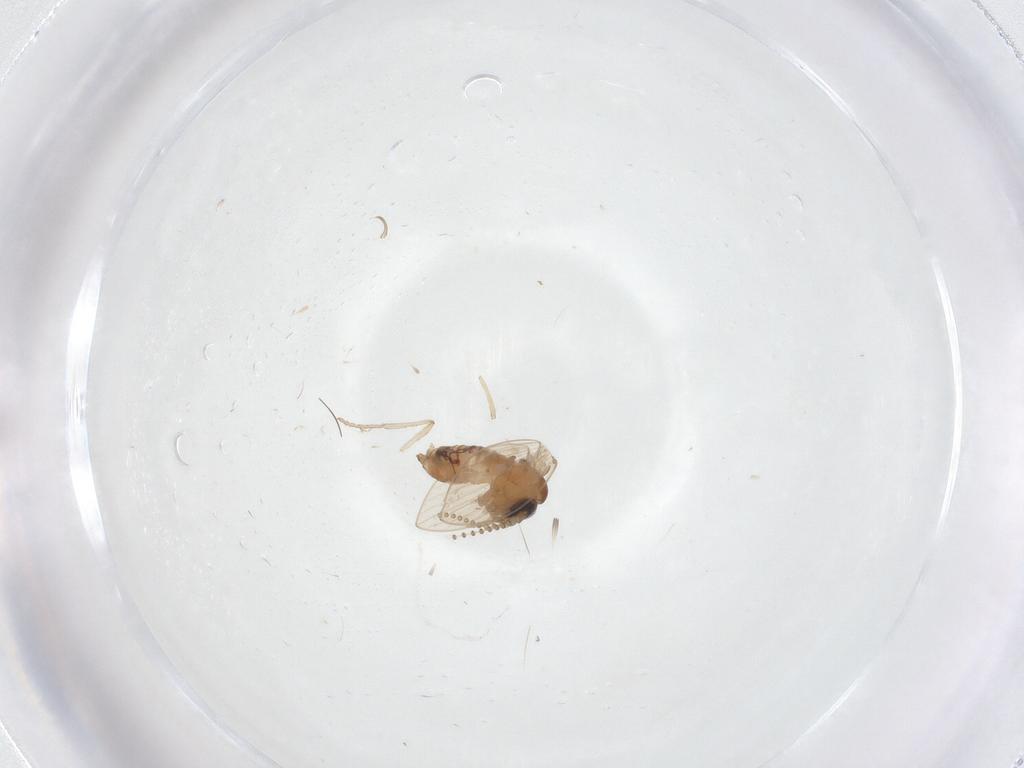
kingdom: Animalia
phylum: Arthropoda
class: Insecta
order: Diptera
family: Psychodidae
